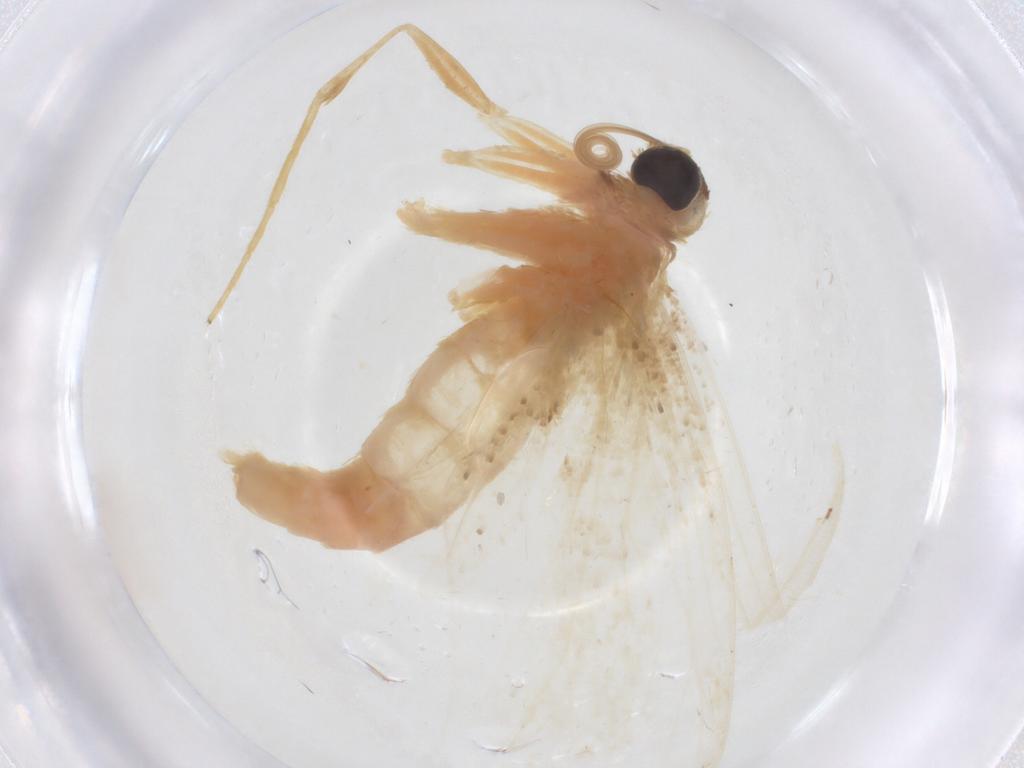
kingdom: Animalia
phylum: Arthropoda
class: Insecta
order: Lepidoptera
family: Geometridae
